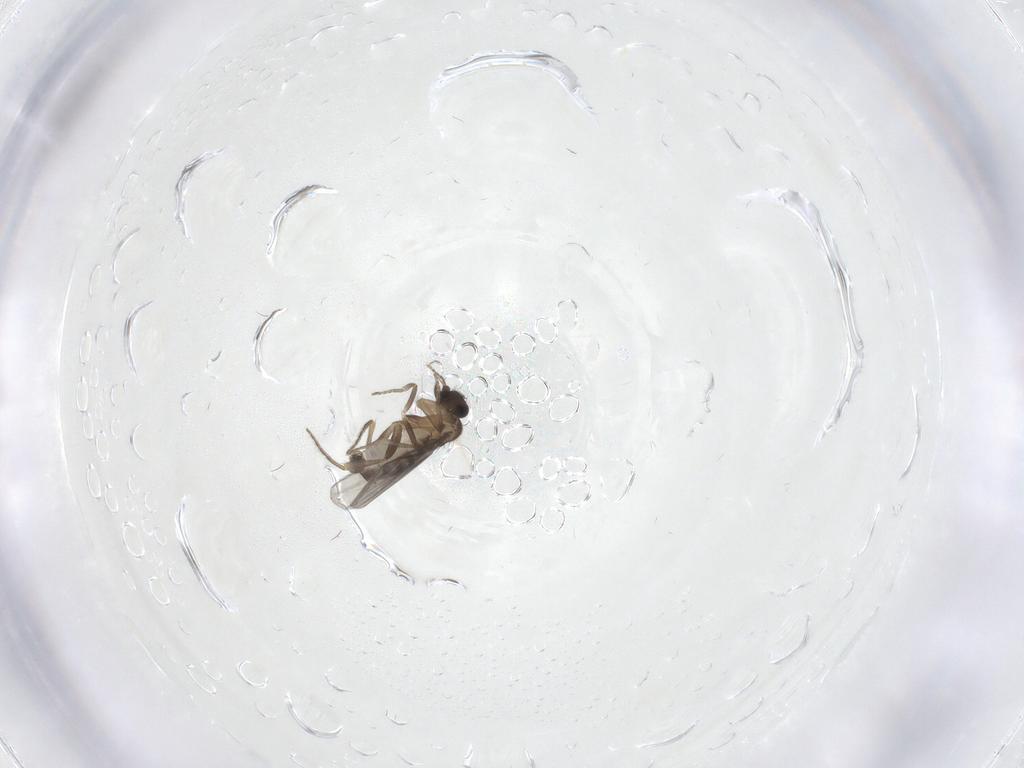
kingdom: Animalia
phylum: Arthropoda
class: Insecta
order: Diptera
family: Cecidomyiidae
